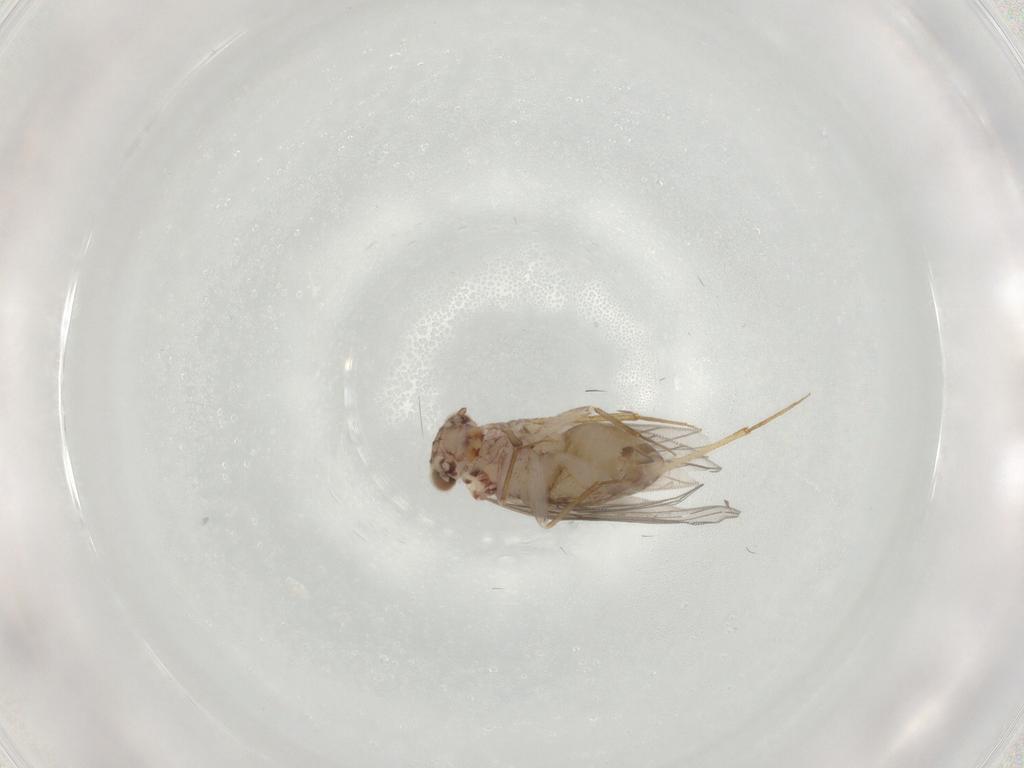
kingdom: Animalia
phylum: Arthropoda
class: Insecta
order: Psocodea
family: Lepidopsocidae
